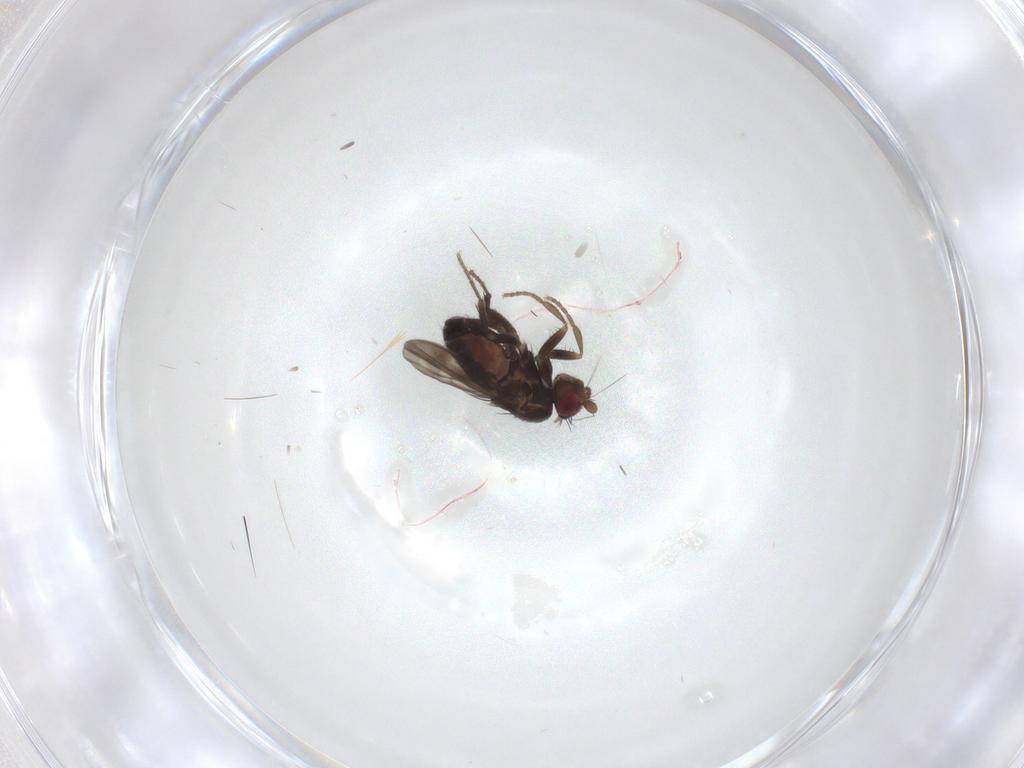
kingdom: Animalia
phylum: Arthropoda
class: Insecta
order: Diptera
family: Sphaeroceridae
